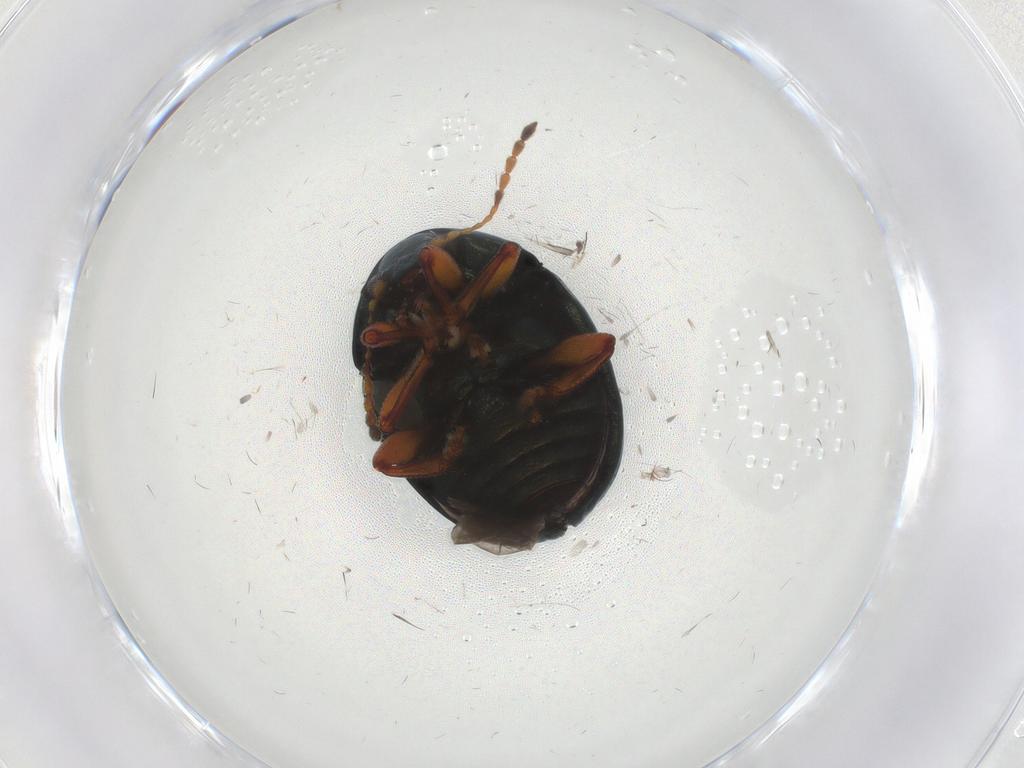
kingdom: Animalia
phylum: Arthropoda
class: Insecta
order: Coleoptera
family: Chrysomelidae
